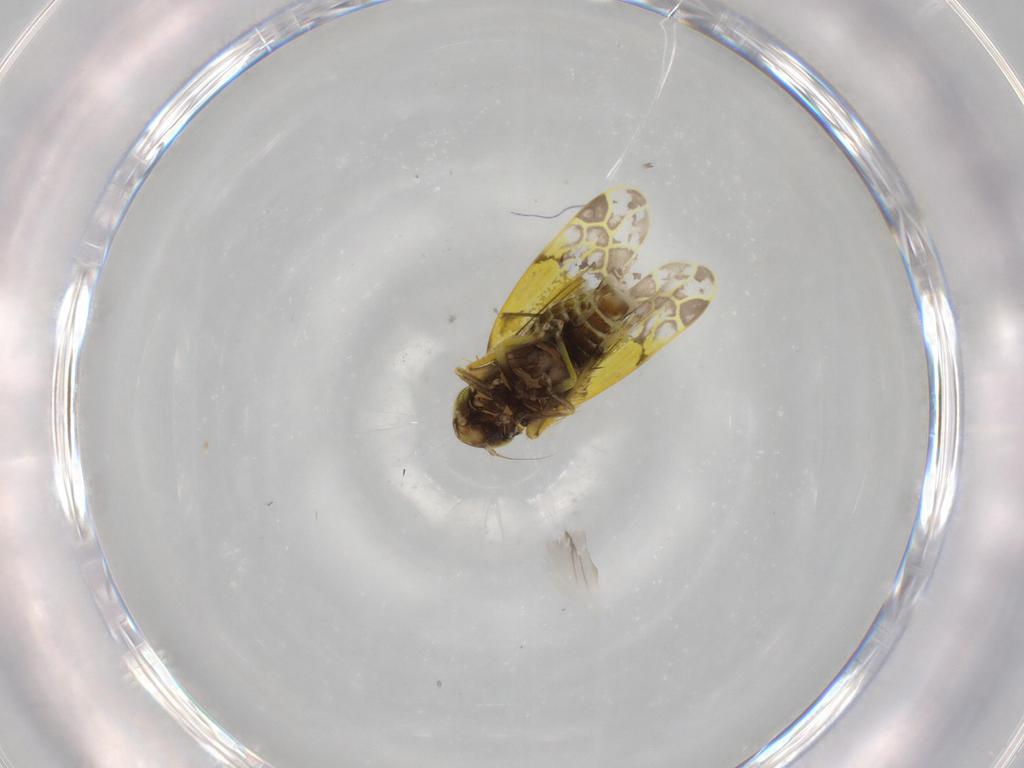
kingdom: Animalia
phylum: Arthropoda
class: Insecta
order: Hemiptera
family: Cicadellidae
